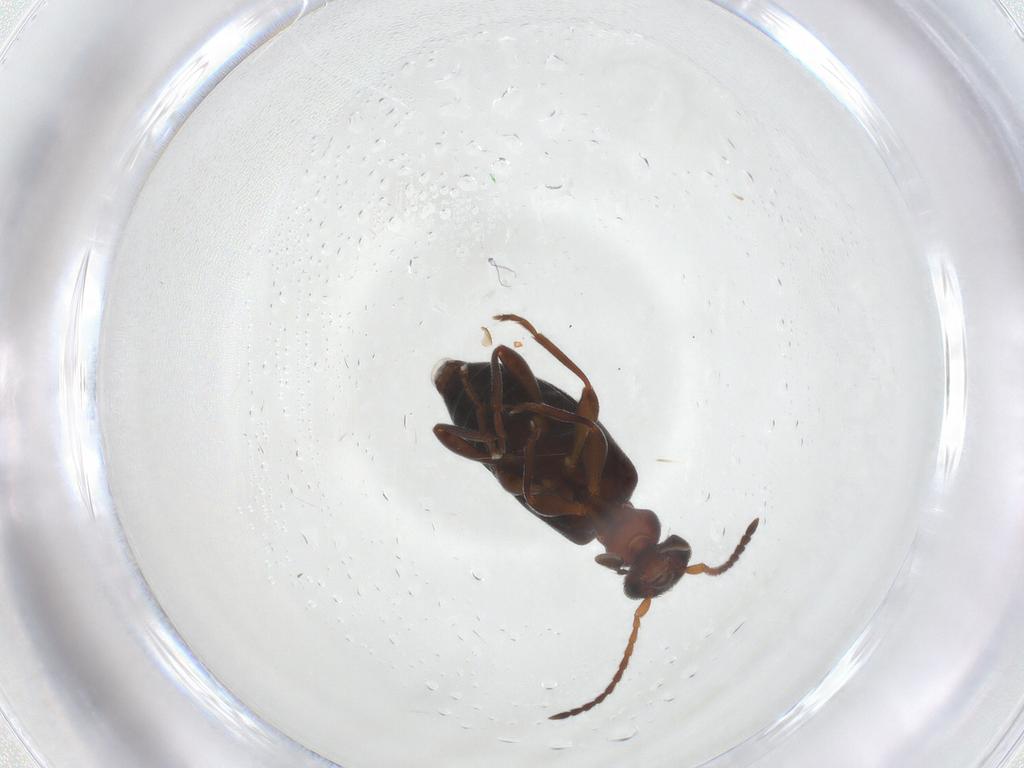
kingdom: Animalia
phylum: Arthropoda
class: Insecta
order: Coleoptera
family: Anthicidae
